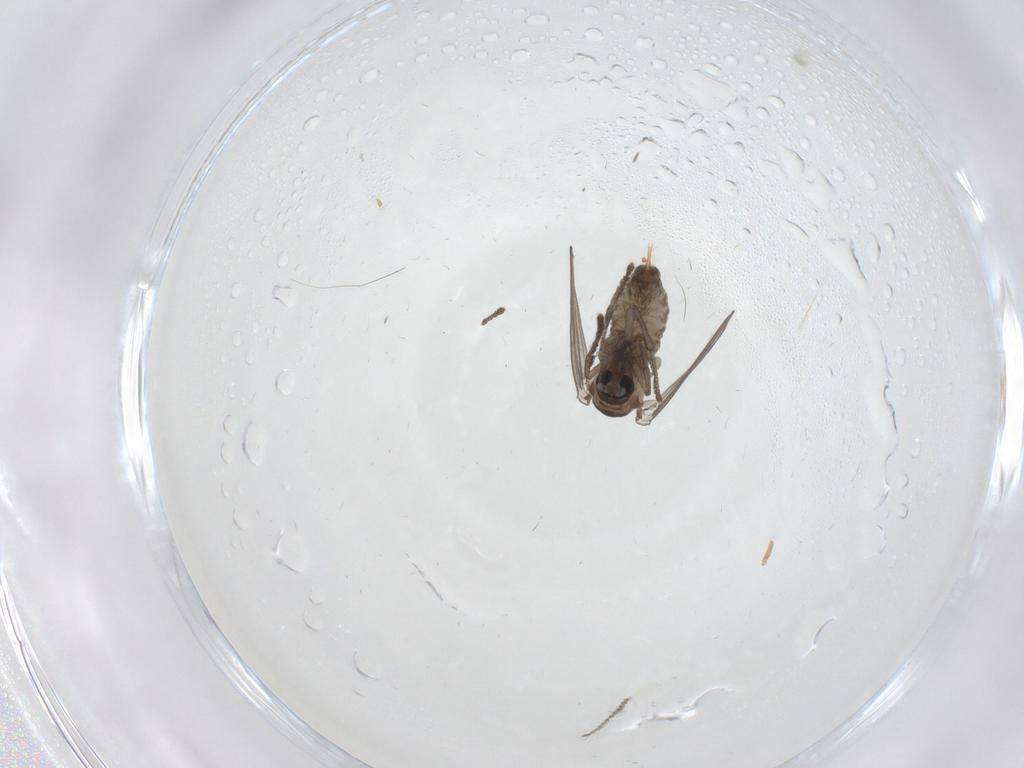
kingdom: Animalia
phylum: Arthropoda
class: Insecta
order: Diptera
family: Psychodidae
